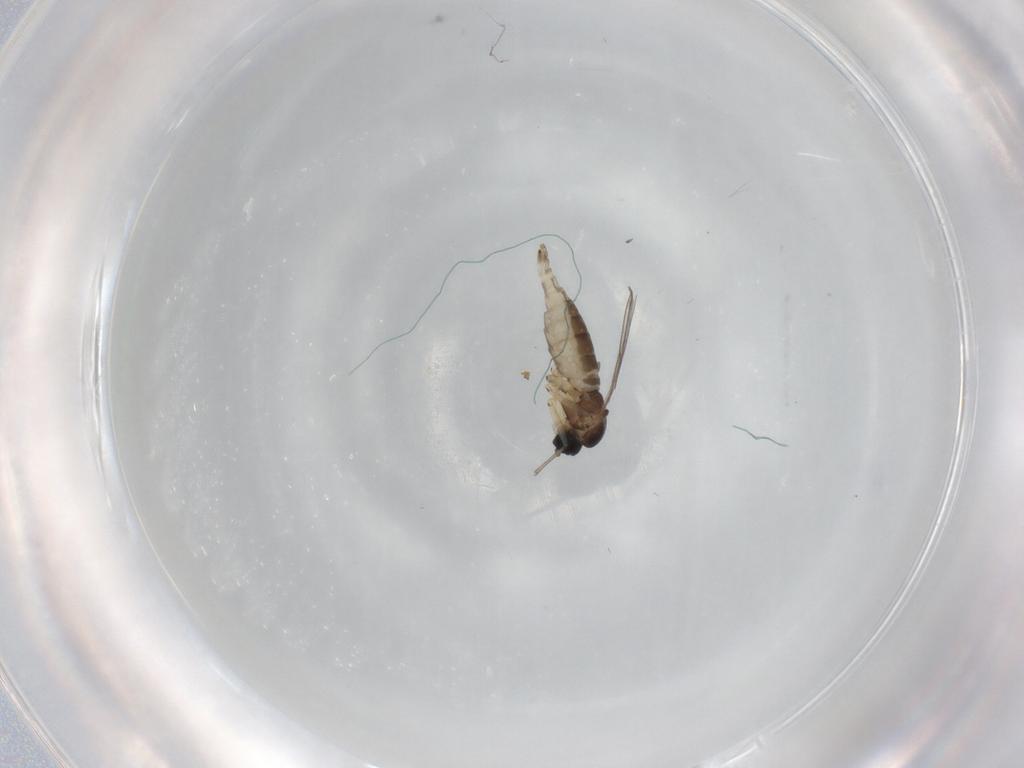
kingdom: Animalia
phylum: Arthropoda
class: Insecta
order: Diptera
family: Sciaridae
